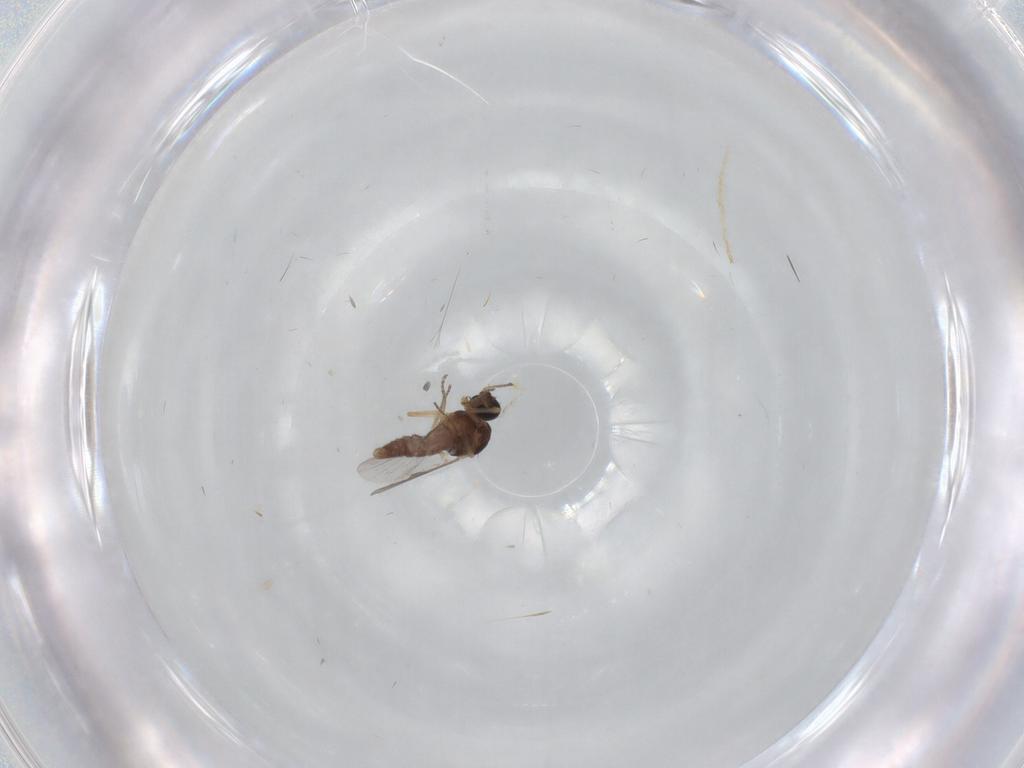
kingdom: Animalia
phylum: Arthropoda
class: Insecta
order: Diptera
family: Ceratopogonidae
